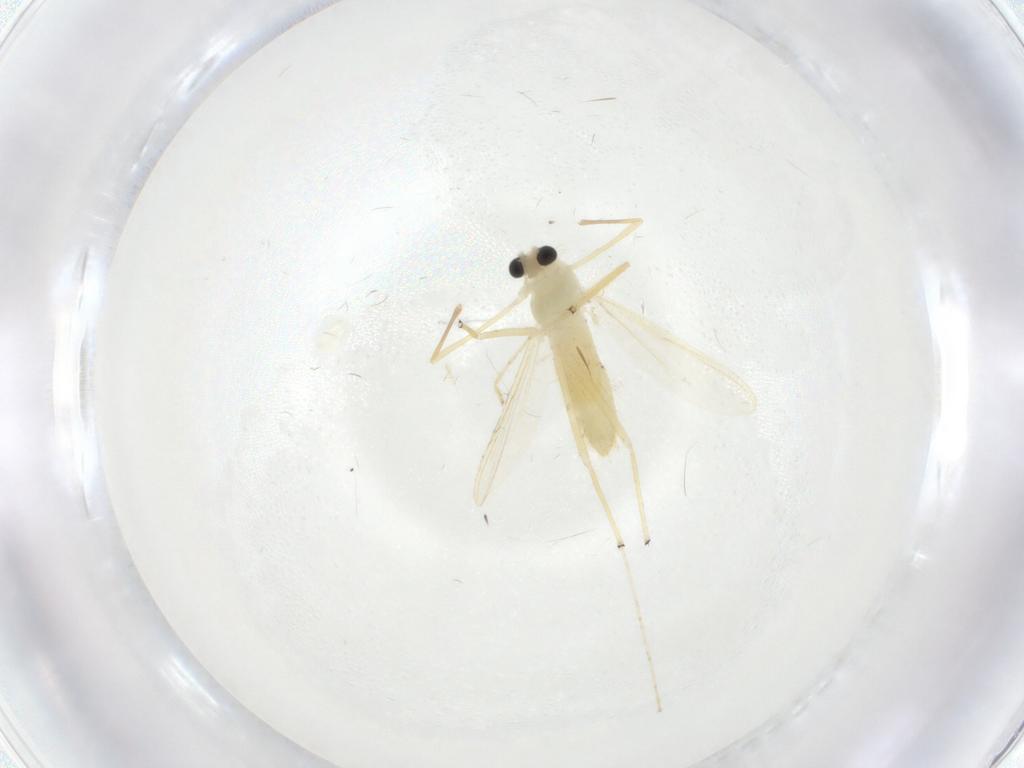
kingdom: Animalia
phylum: Arthropoda
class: Insecta
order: Diptera
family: Chironomidae
